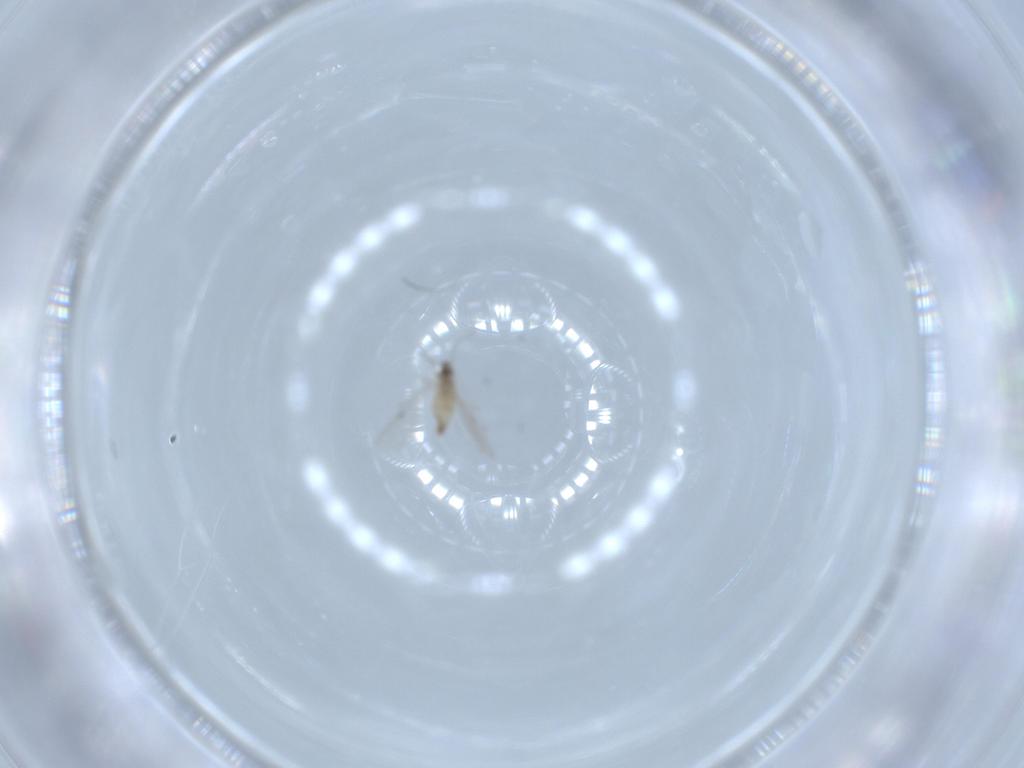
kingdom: Animalia
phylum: Arthropoda
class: Insecta
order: Diptera
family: Cecidomyiidae
